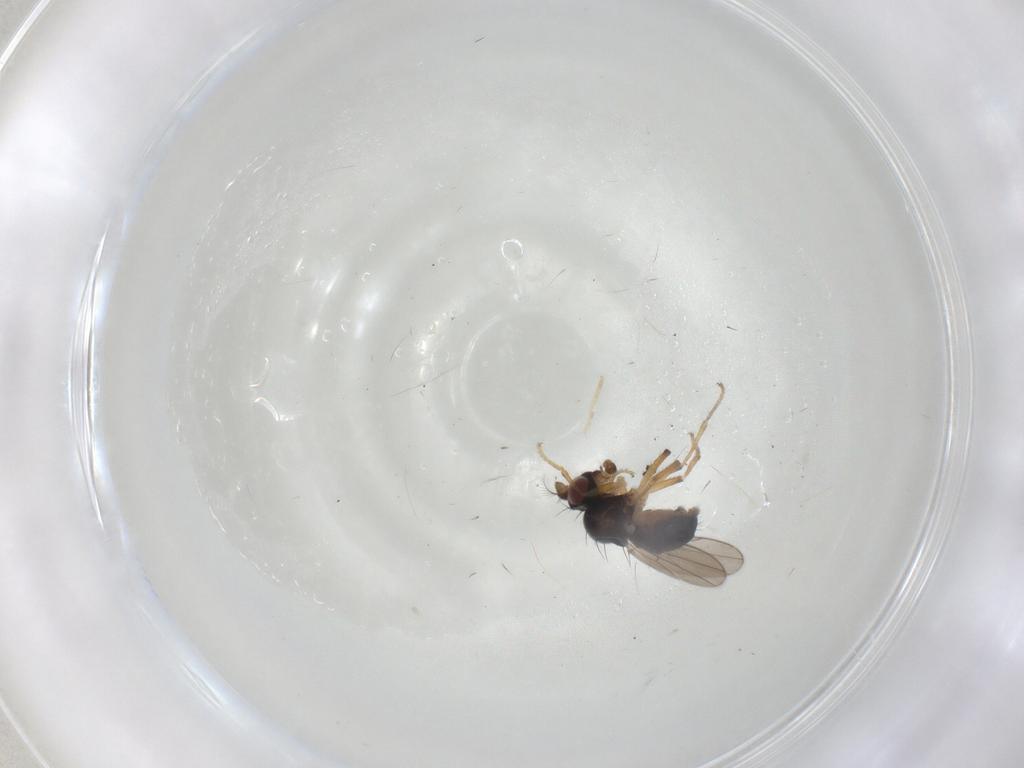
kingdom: Animalia
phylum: Arthropoda
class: Insecta
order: Diptera
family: Ephydridae
